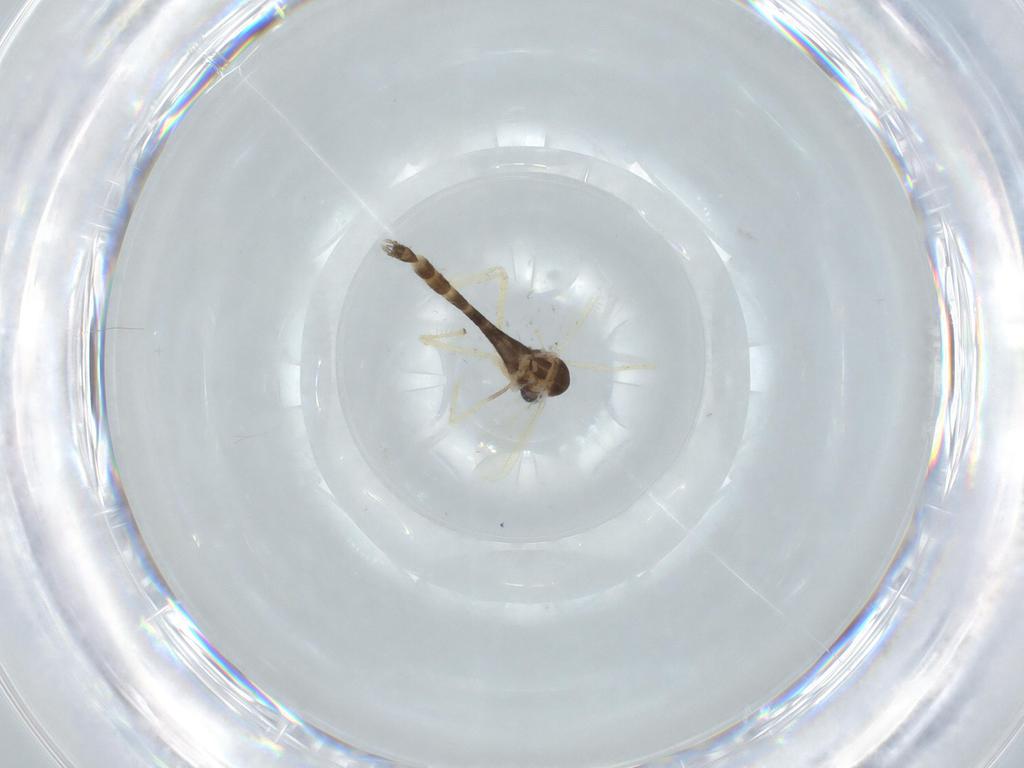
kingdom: Animalia
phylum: Arthropoda
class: Insecta
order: Diptera
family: Chironomidae
